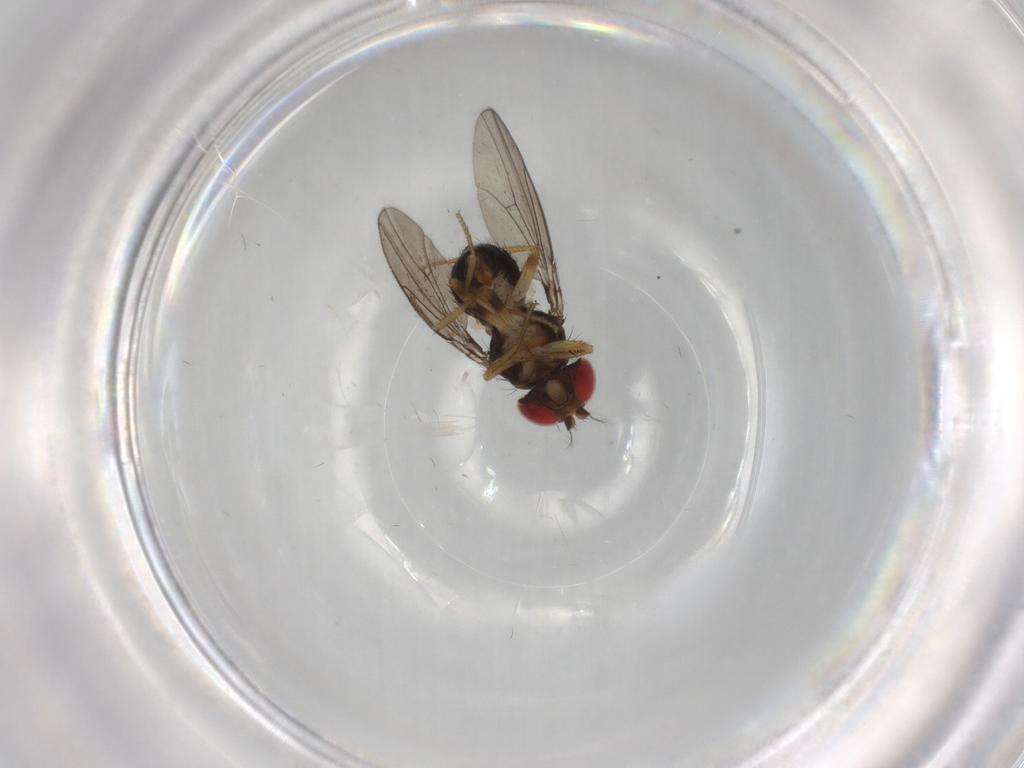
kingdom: Animalia
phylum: Arthropoda
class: Insecta
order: Diptera
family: Drosophilidae
